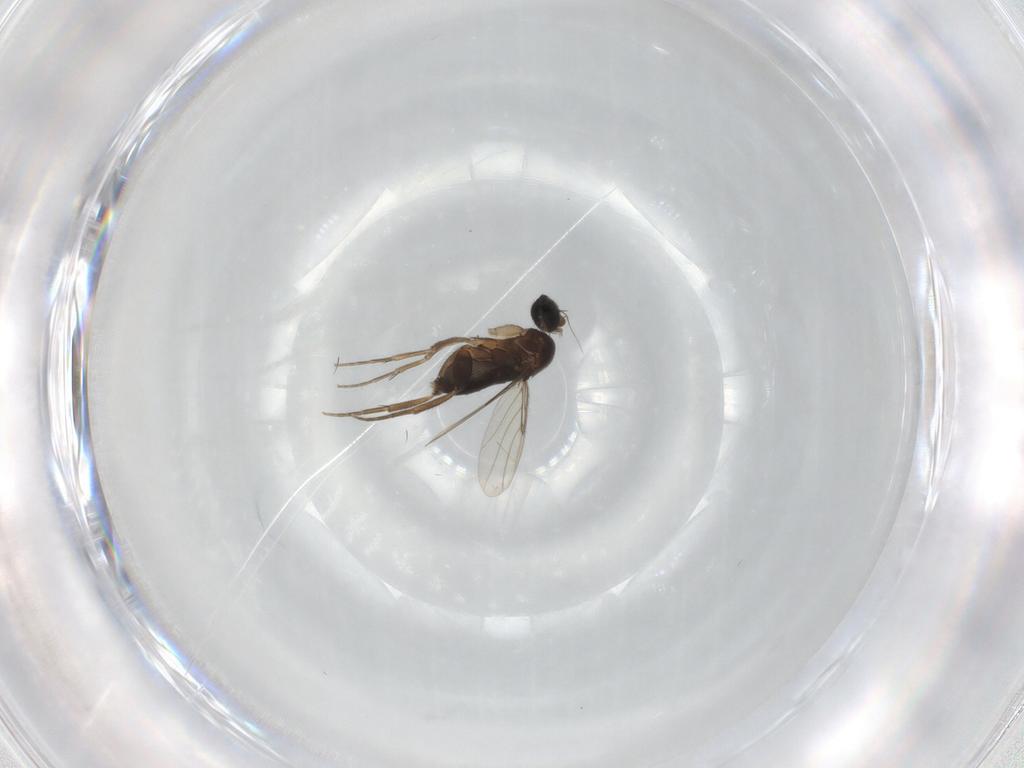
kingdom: Animalia
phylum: Arthropoda
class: Insecta
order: Diptera
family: Phoridae
